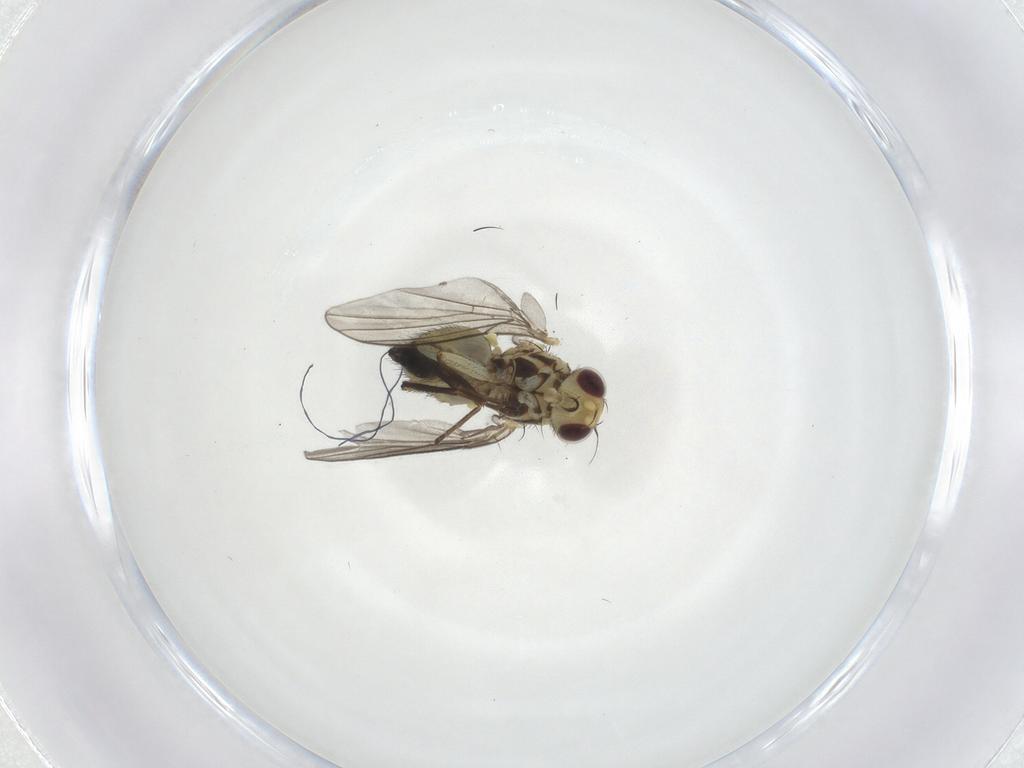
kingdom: Animalia
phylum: Arthropoda
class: Insecta
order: Diptera
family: Agromyzidae
